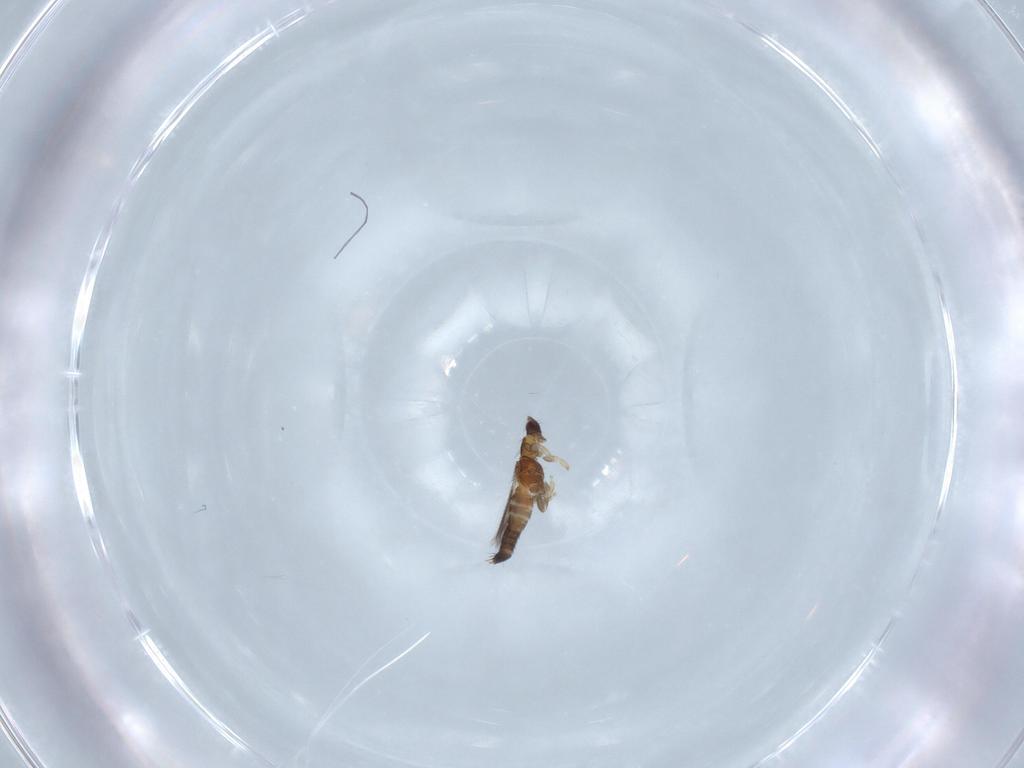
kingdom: Animalia
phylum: Arthropoda
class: Insecta
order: Thysanoptera
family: Thripidae
